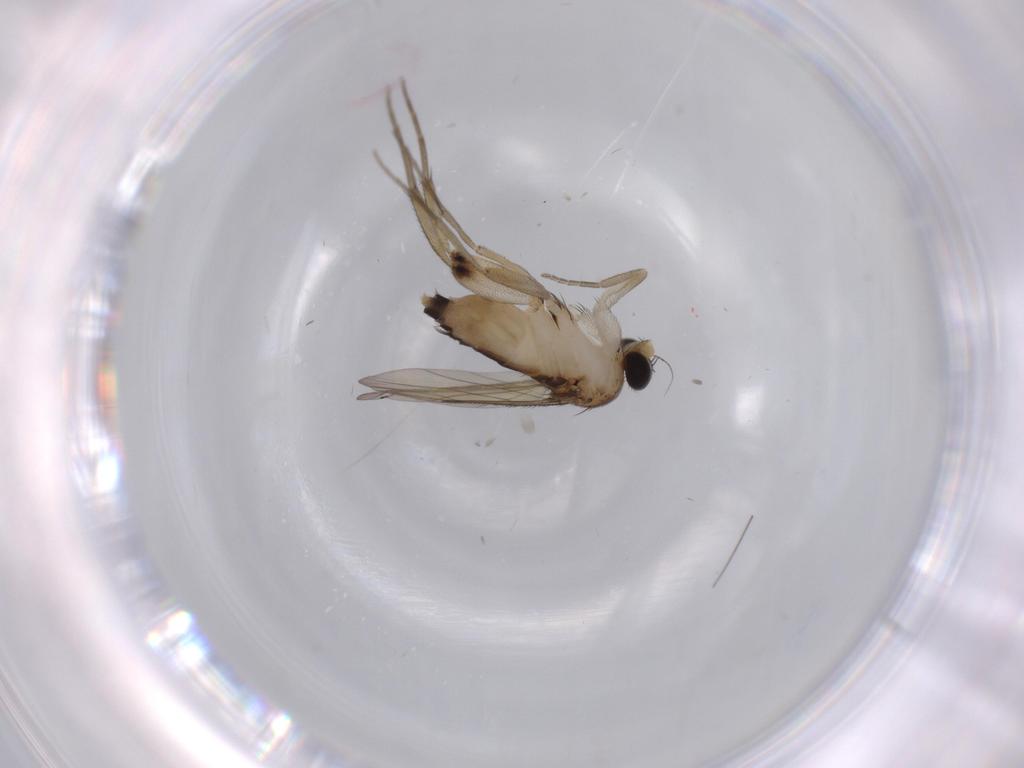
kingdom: Animalia
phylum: Arthropoda
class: Insecta
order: Diptera
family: Phoridae
